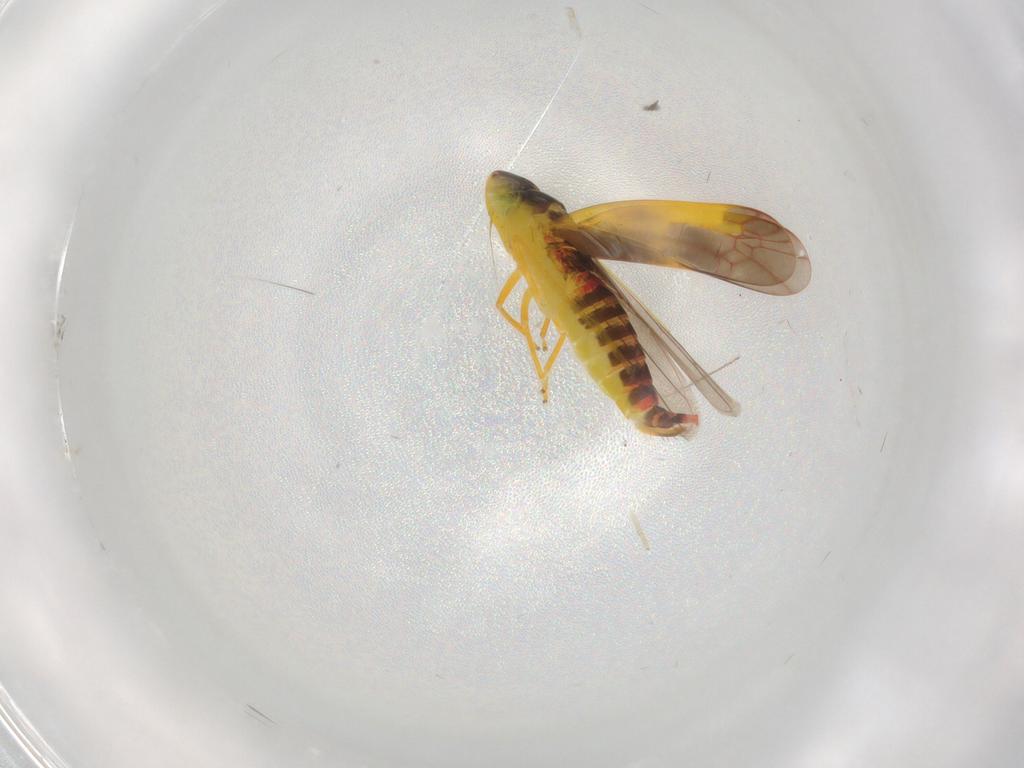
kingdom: Animalia
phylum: Arthropoda
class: Insecta
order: Hemiptera
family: Cicadellidae
